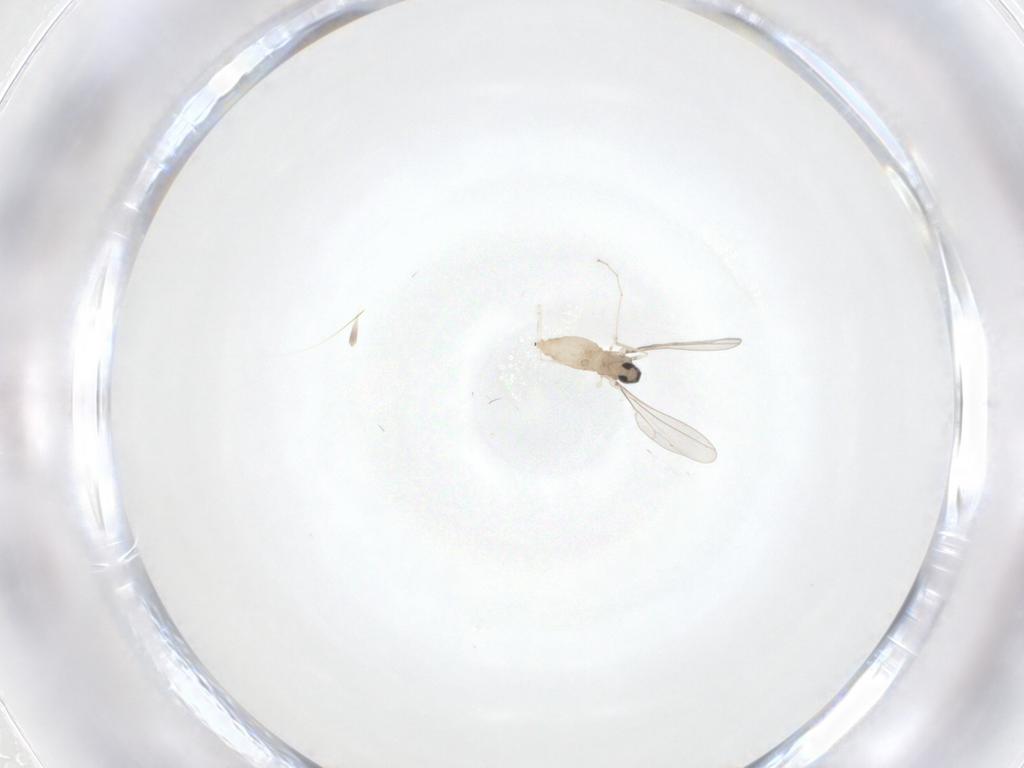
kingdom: Animalia
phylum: Arthropoda
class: Insecta
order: Diptera
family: Cecidomyiidae
